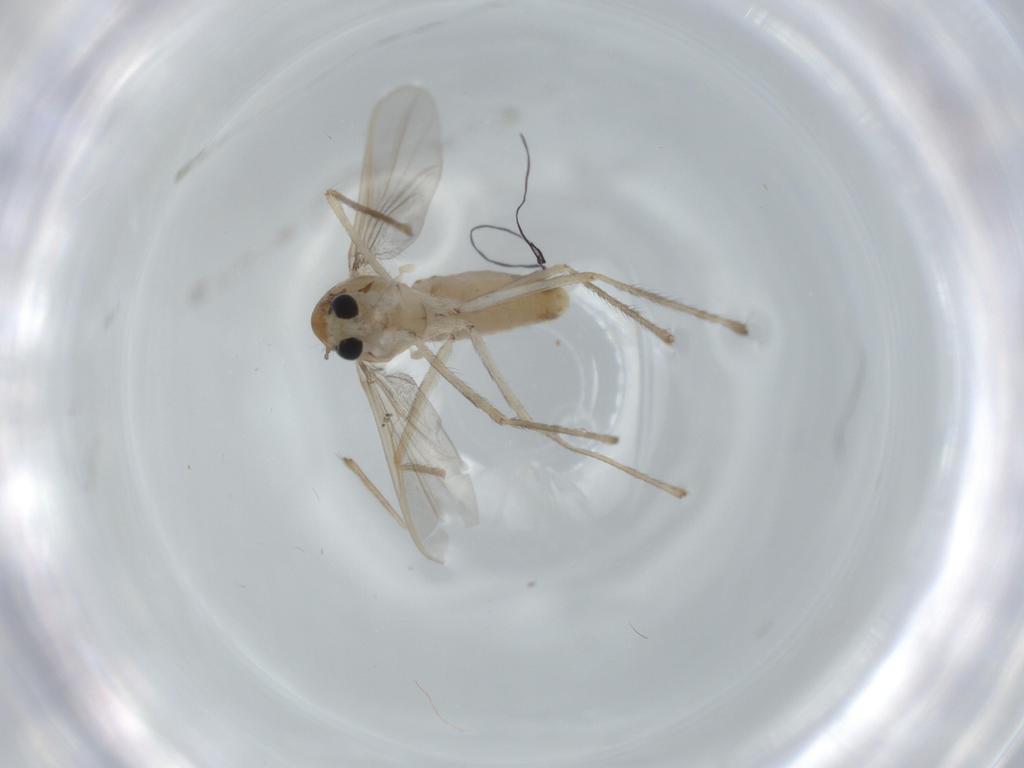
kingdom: Animalia
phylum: Arthropoda
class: Insecta
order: Diptera
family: Chironomidae
